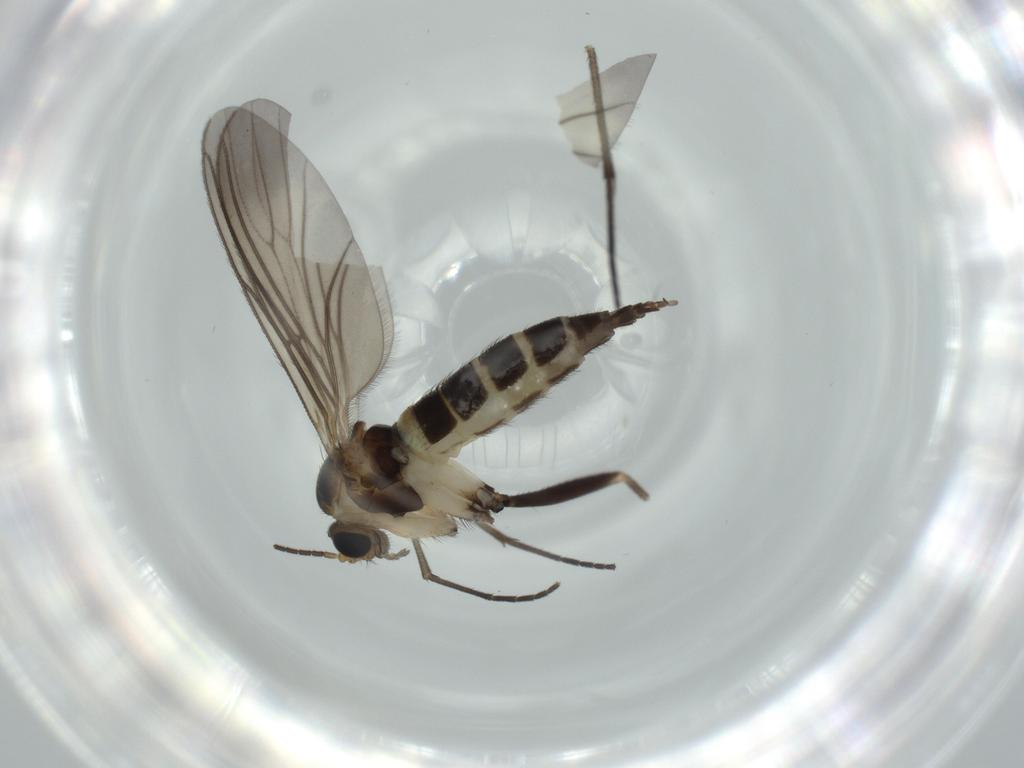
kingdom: Animalia
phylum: Arthropoda
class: Insecta
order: Diptera
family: Sciaridae
